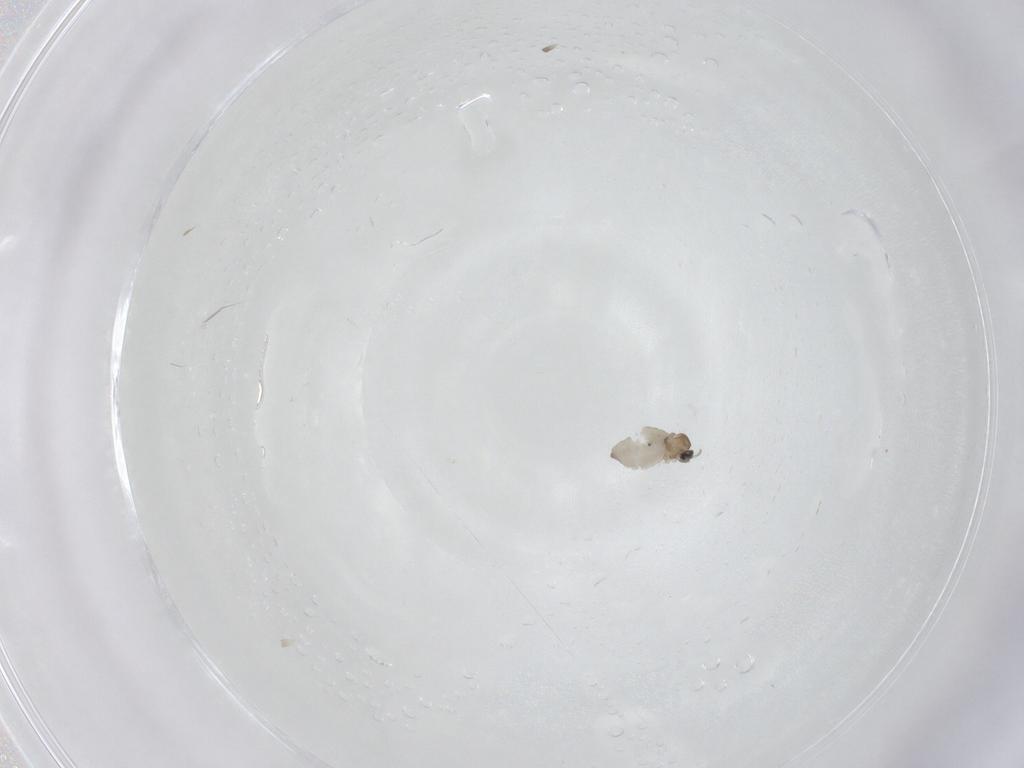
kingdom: Animalia
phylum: Arthropoda
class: Insecta
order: Diptera
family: Cecidomyiidae
